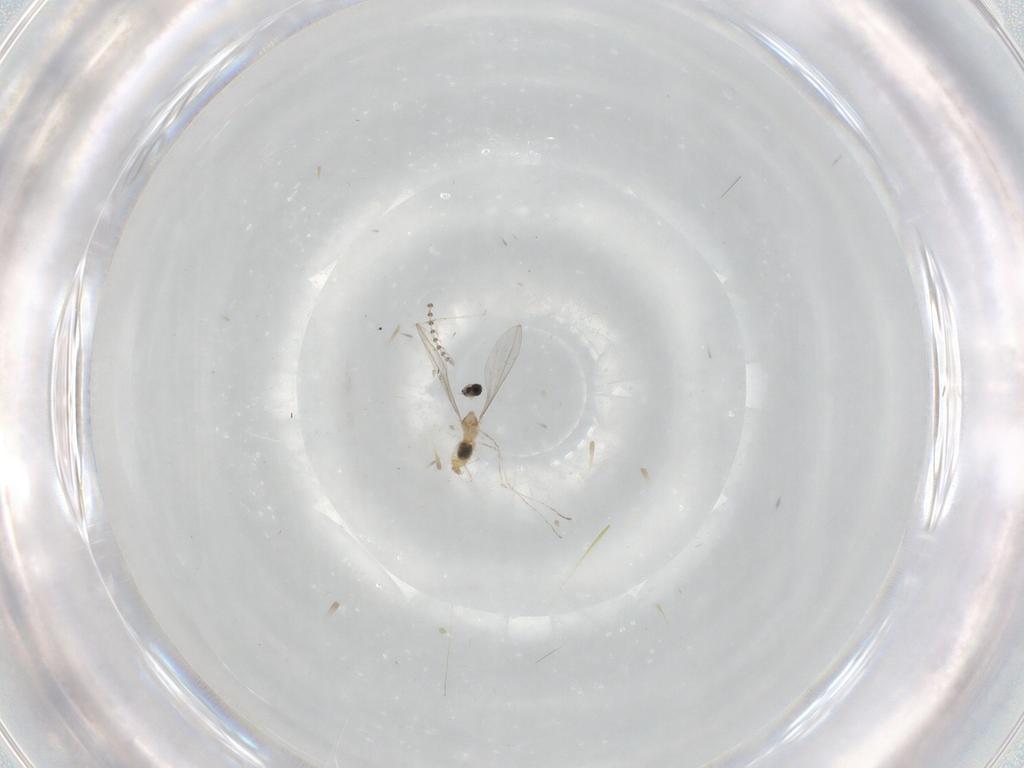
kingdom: Animalia
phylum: Arthropoda
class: Insecta
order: Diptera
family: Cecidomyiidae
